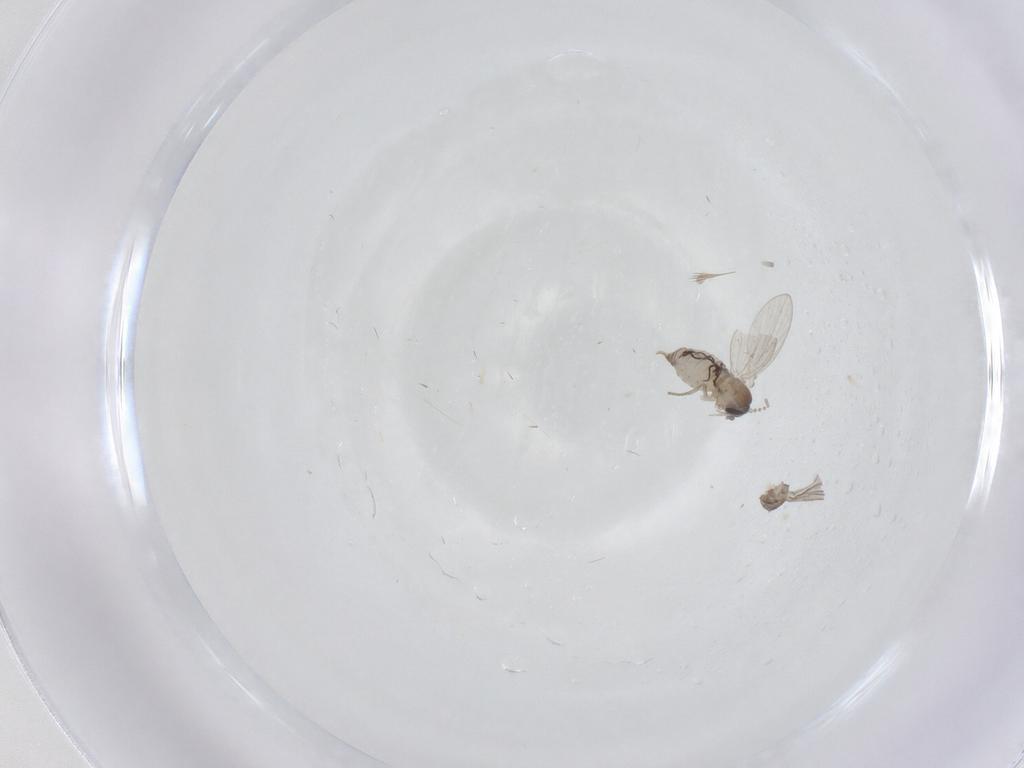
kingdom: Animalia
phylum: Arthropoda
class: Insecta
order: Diptera
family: Psychodidae
